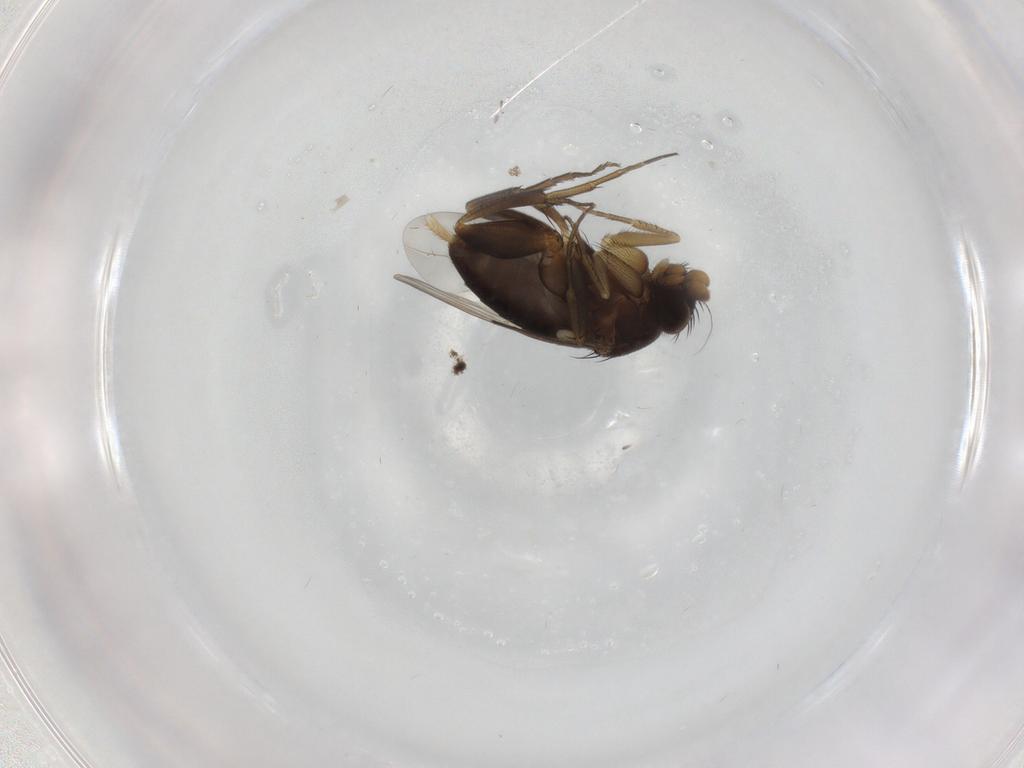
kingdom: Animalia
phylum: Arthropoda
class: Insecta
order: Diptera
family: Phoridae
